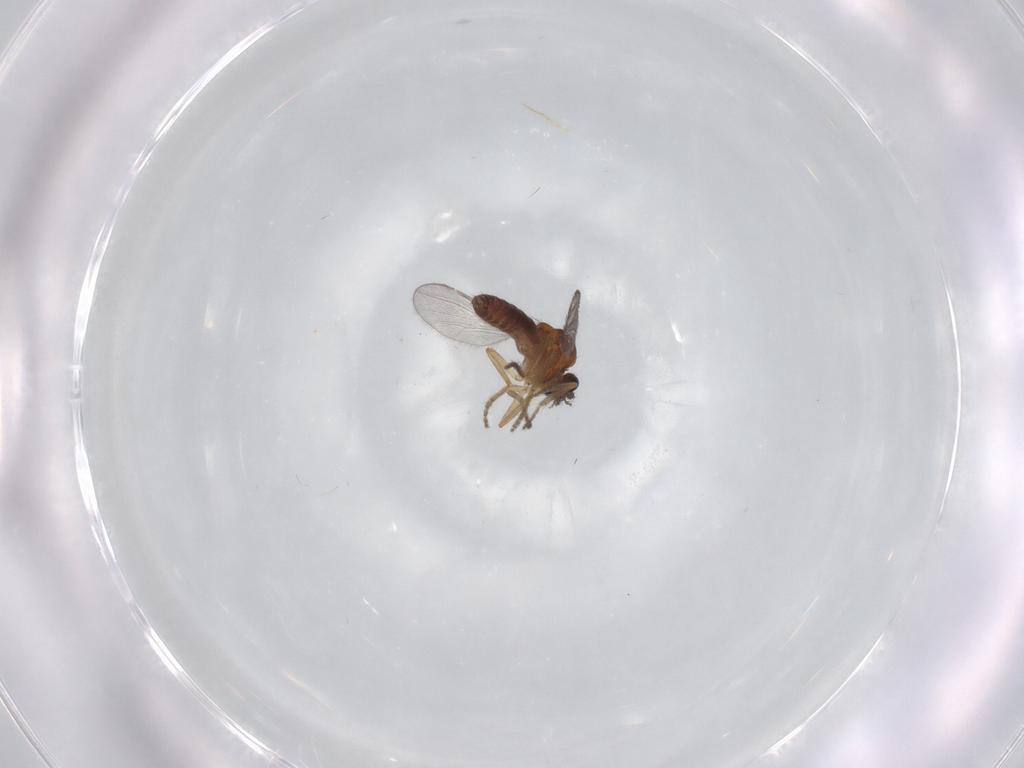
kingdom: Animalia
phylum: Arthropoda
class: Insecta
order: Diptera
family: Ceratopogonidae
